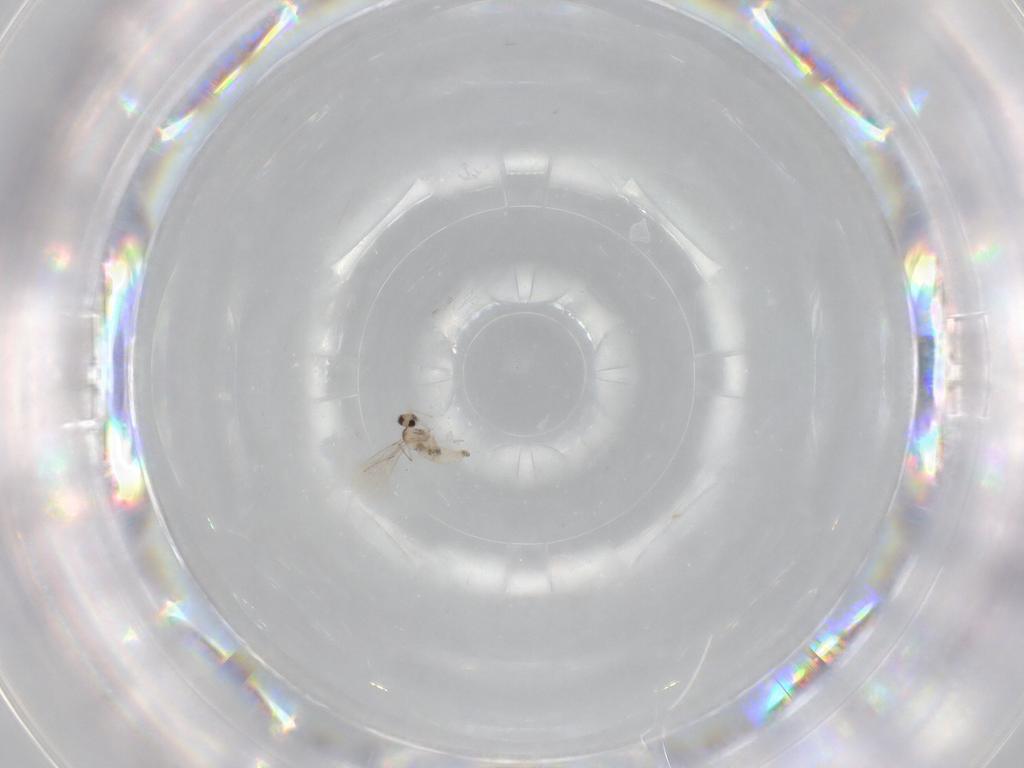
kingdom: Animalia
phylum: Arthropoda
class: Insecta
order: Diptera
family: Cecidomyiidae
